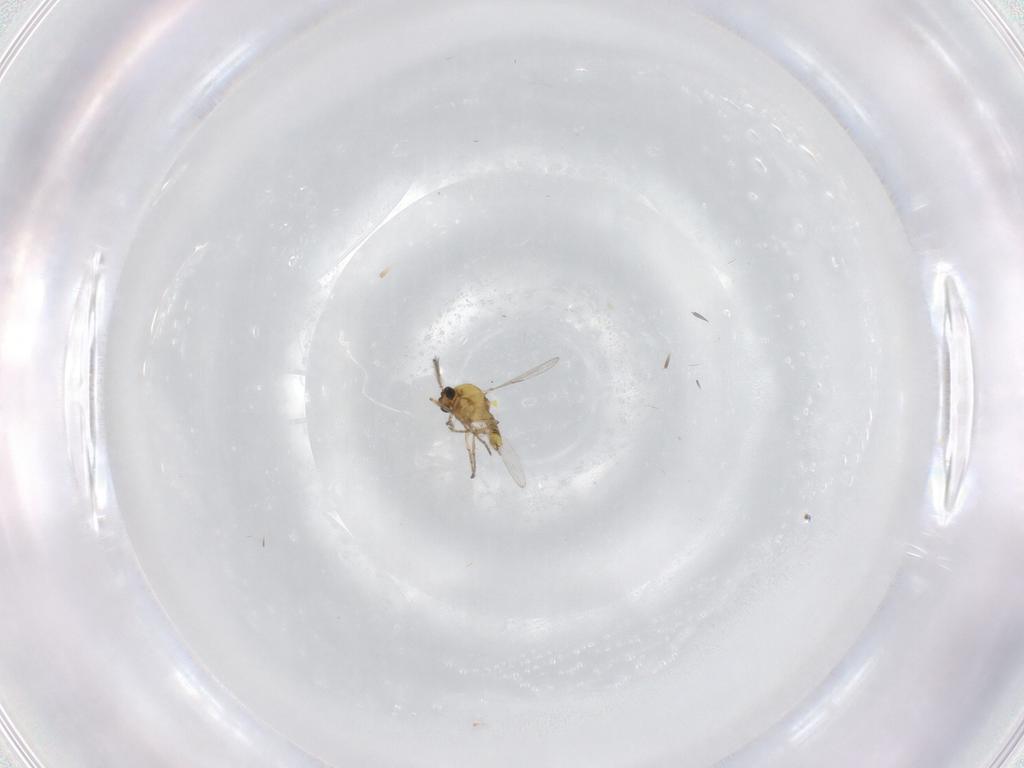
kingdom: Animalia
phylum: Arthropoda
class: Insecta
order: Diptera
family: Ceratopogonidae
